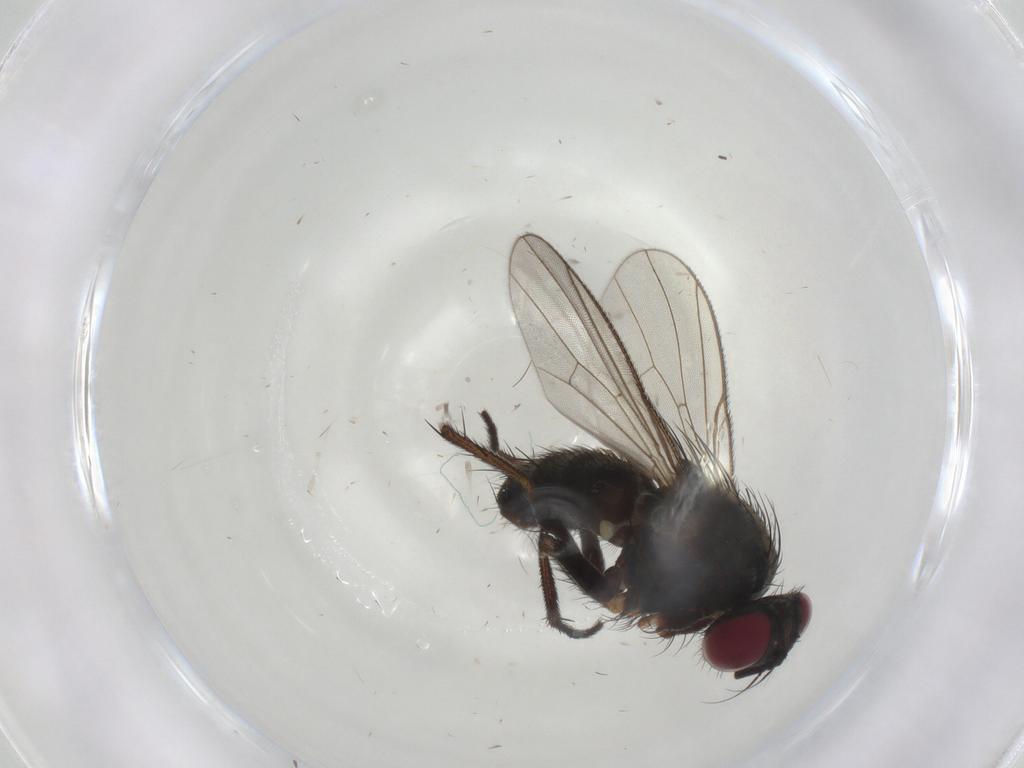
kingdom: Animalia
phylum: Arthropoda
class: Insecta
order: Diptera
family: Muscidae
